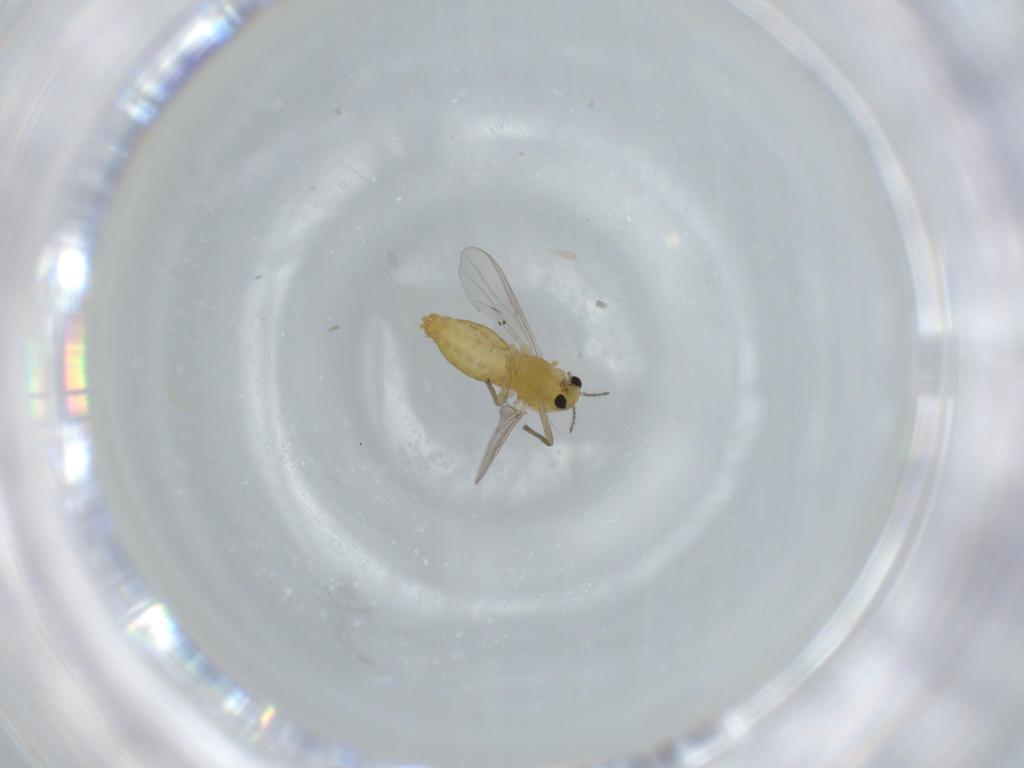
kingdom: Animalia
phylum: Arthropoda
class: Insecta
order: Diptera
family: Chironomidae
